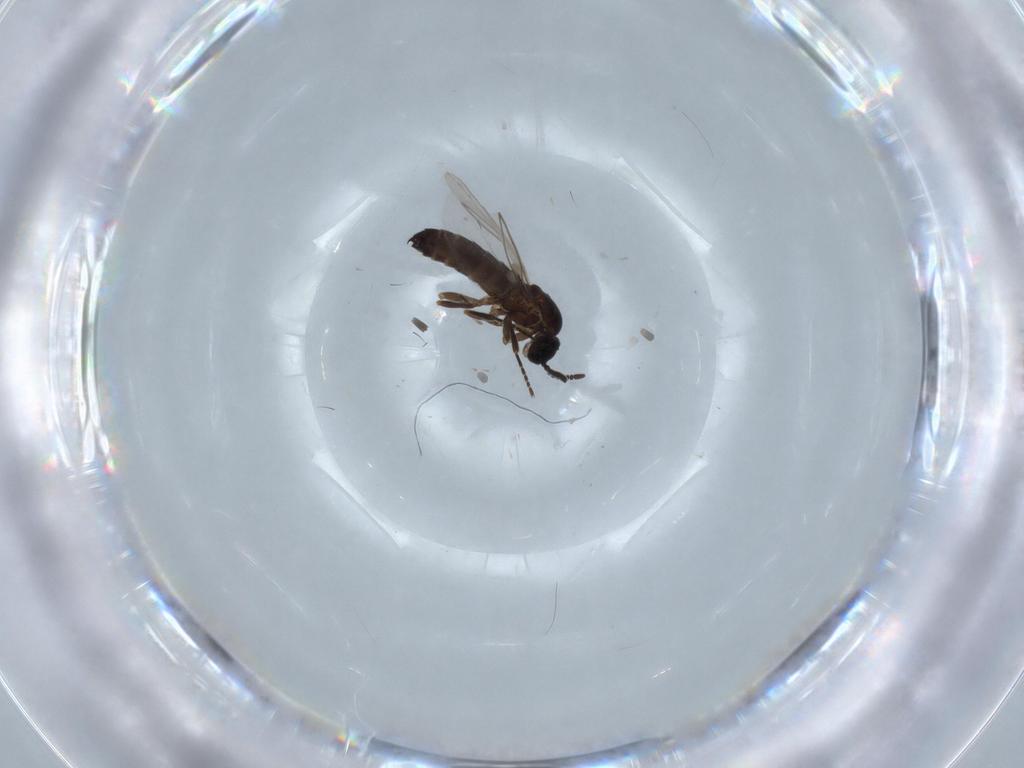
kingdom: Animalia
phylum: Arthropoda
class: Insecta
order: Diptera
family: Scatopsidae
